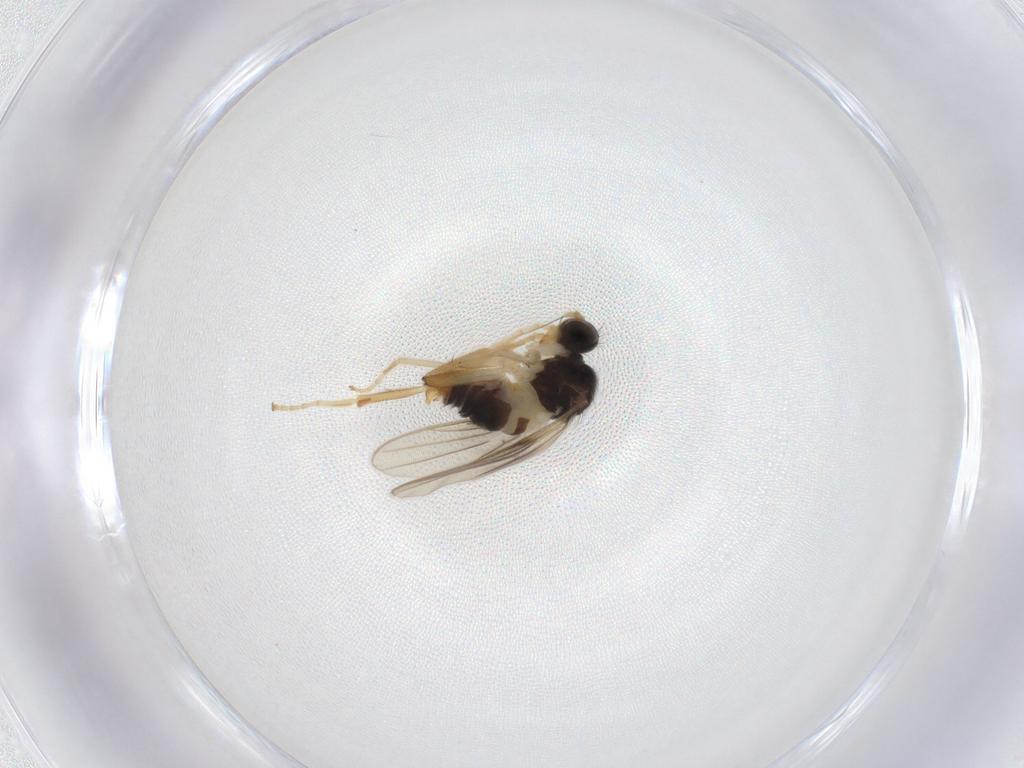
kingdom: Animalia
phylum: Arthropoda
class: Insecta
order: Diptera
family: Hybotidae
